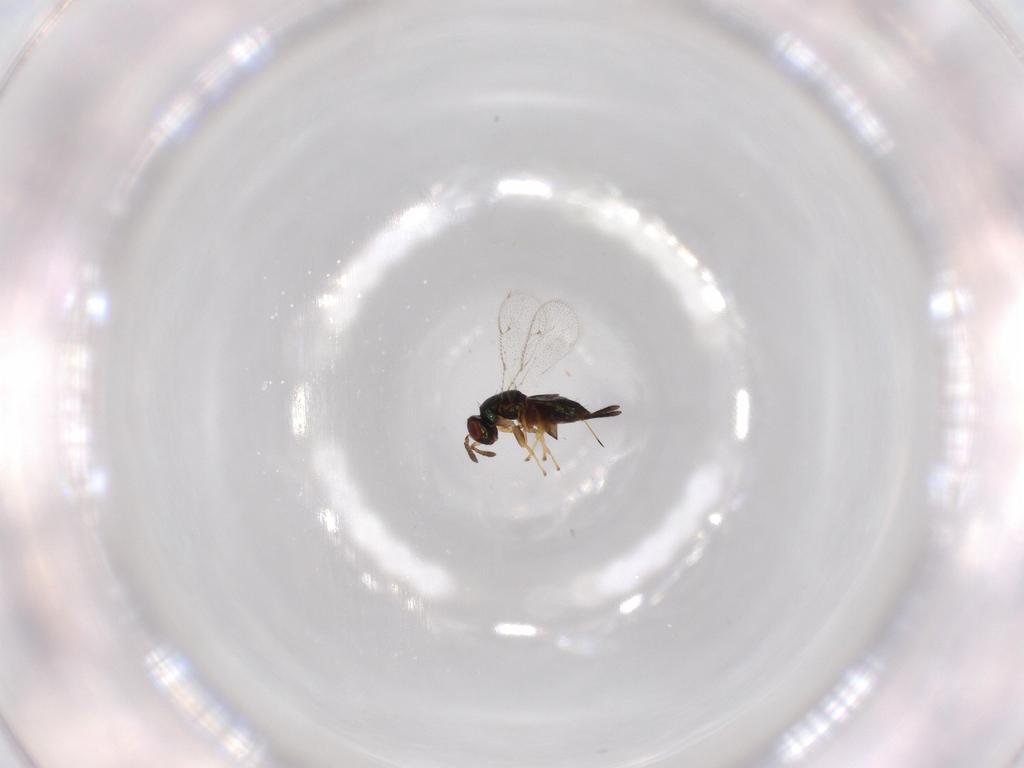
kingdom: Animalia
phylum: Arthropoda
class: Insecta
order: Hymenoptera
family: Torymidae
